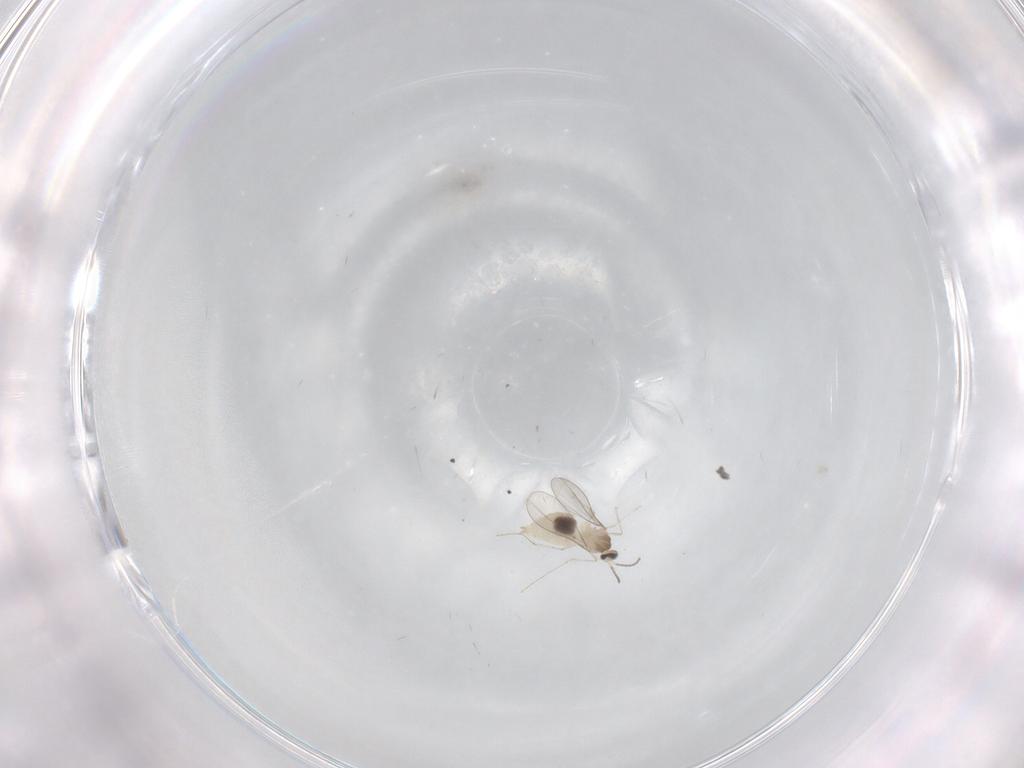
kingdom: Animalia
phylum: Arthropoda
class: Insecta
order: Diptera
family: Cecidomyiidae
